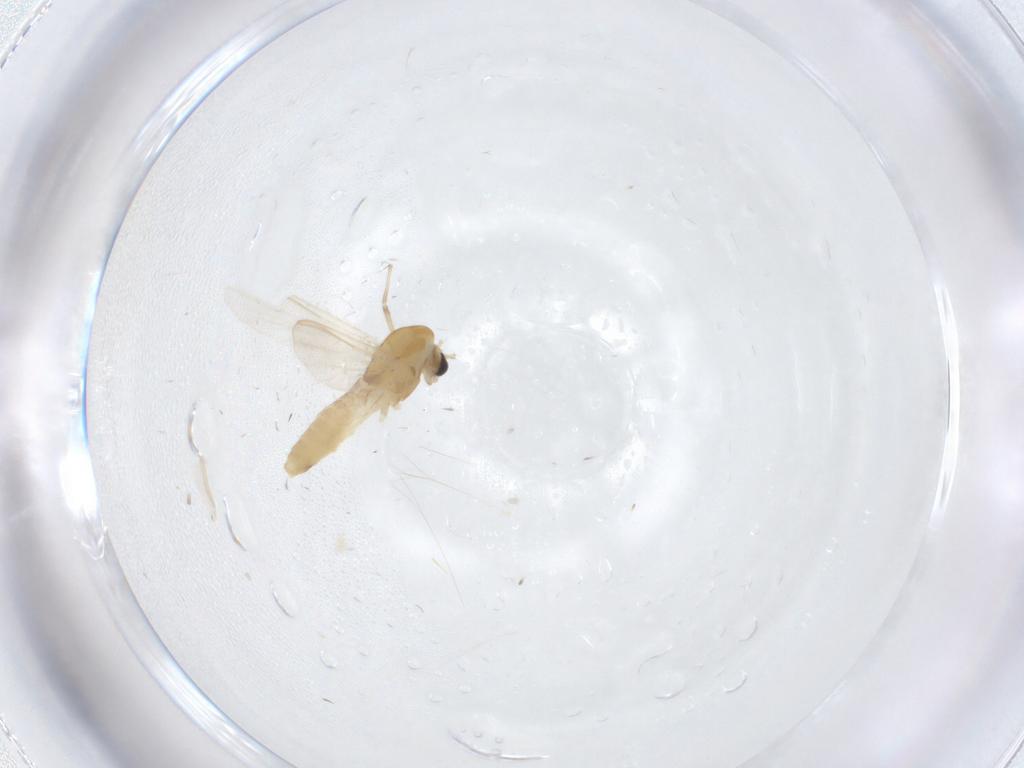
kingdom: Animalia
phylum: Arthropoda
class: Insecta
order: Diptera
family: Chironomidae
